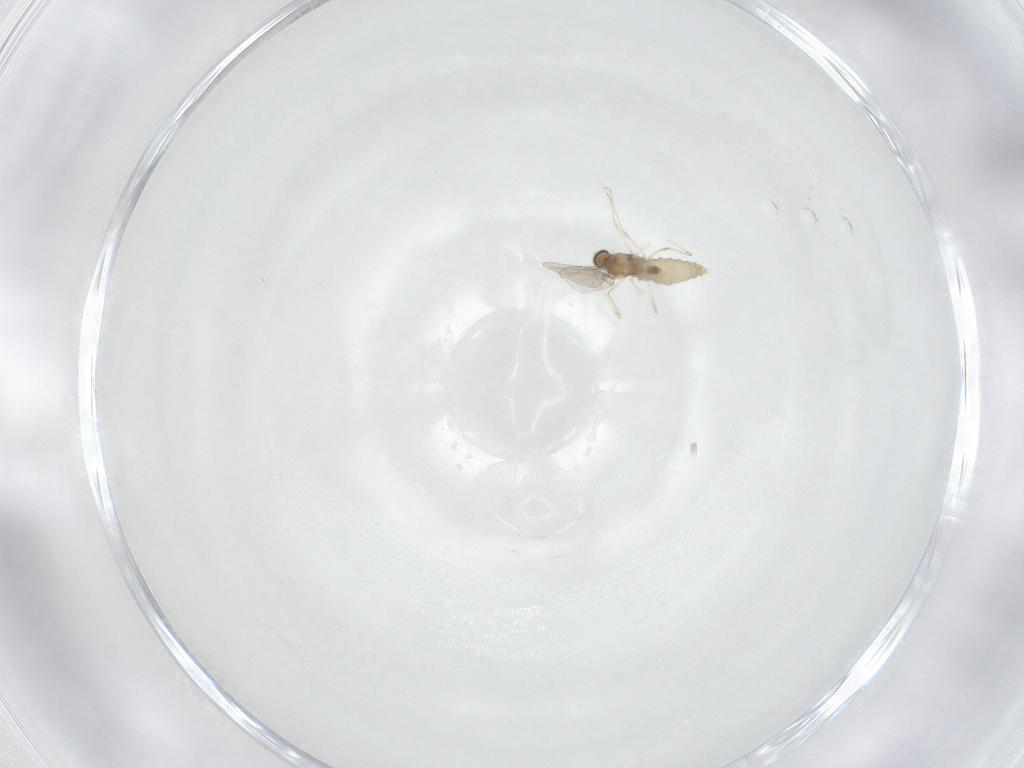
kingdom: Animalia
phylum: Arthropoda
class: Insecta
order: Diptera
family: Cecidomyiidae
